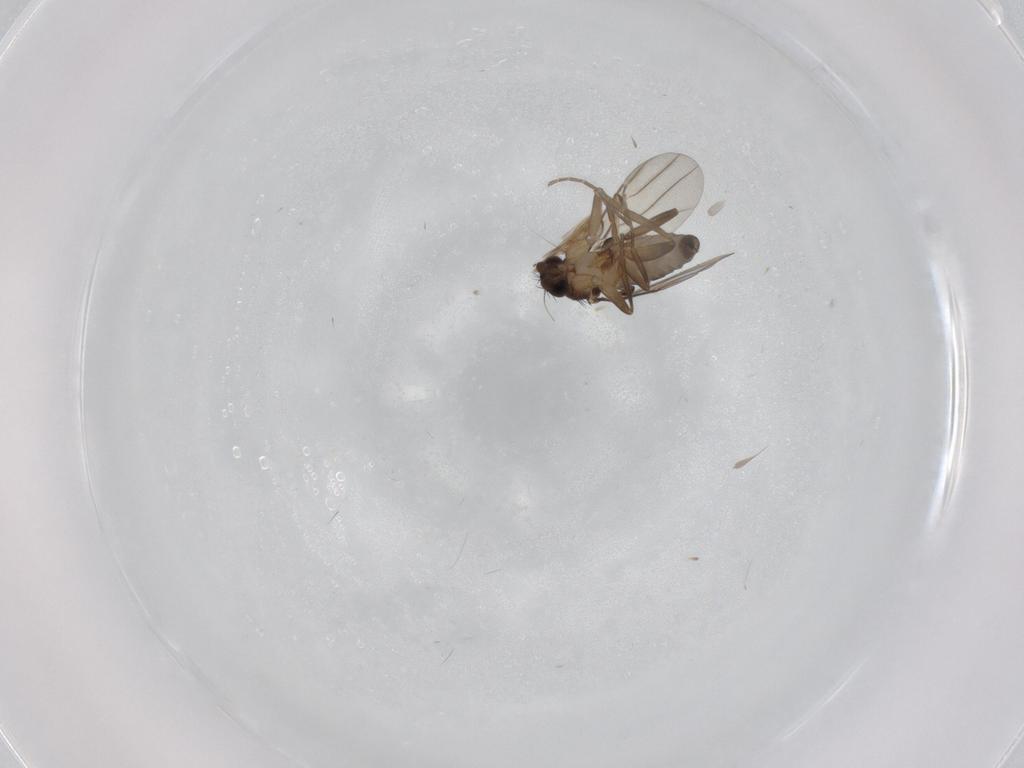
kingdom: Animalia
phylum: Arthropoda
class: Insecta
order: Diptera
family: Phoridae
